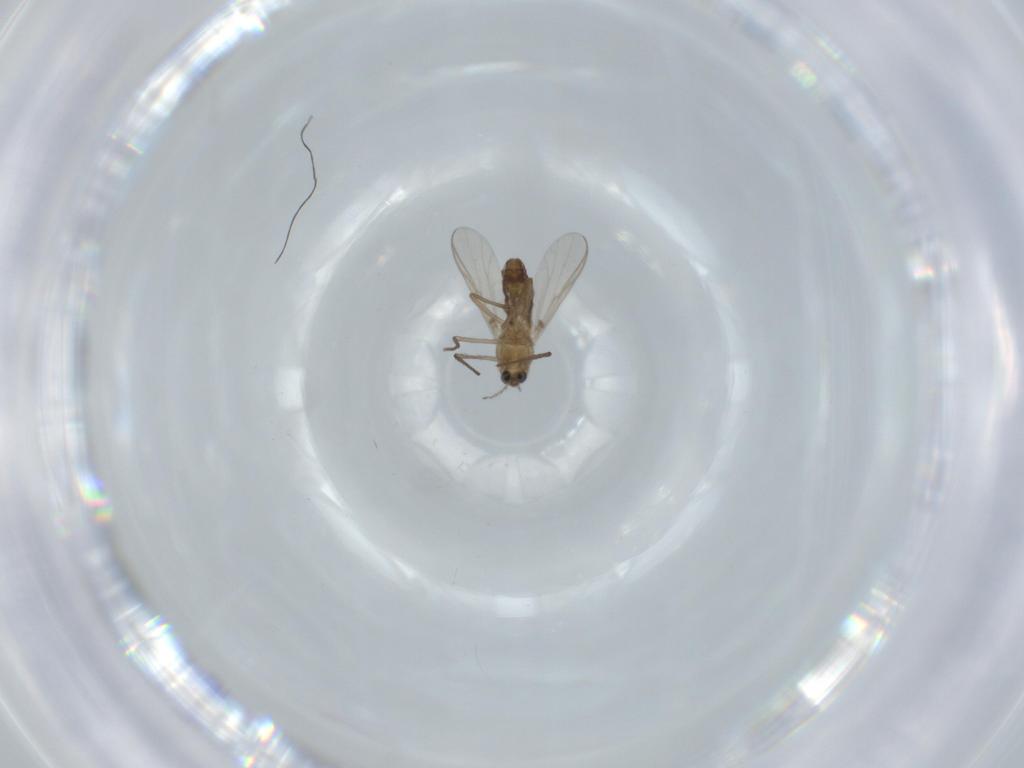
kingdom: Animalia
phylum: Arthropoda
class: Insecta
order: Diptera
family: Chironomidae
